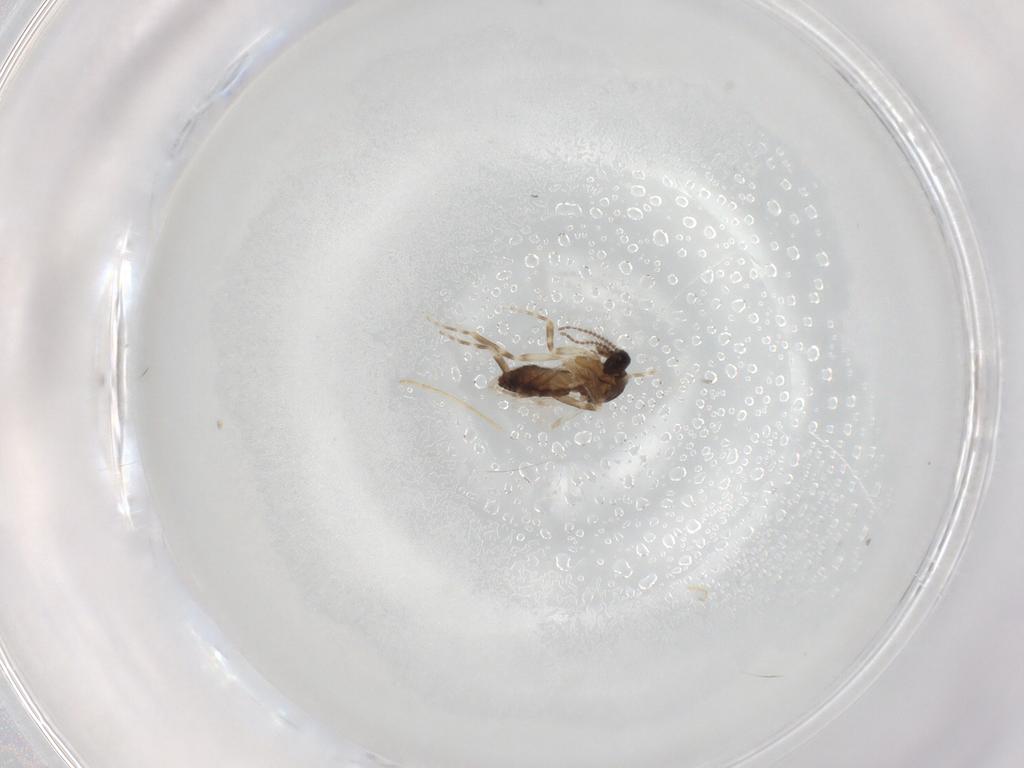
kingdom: Animalia
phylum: Arthropoda
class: Insecta
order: Diptera
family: Ceratopogonidae
